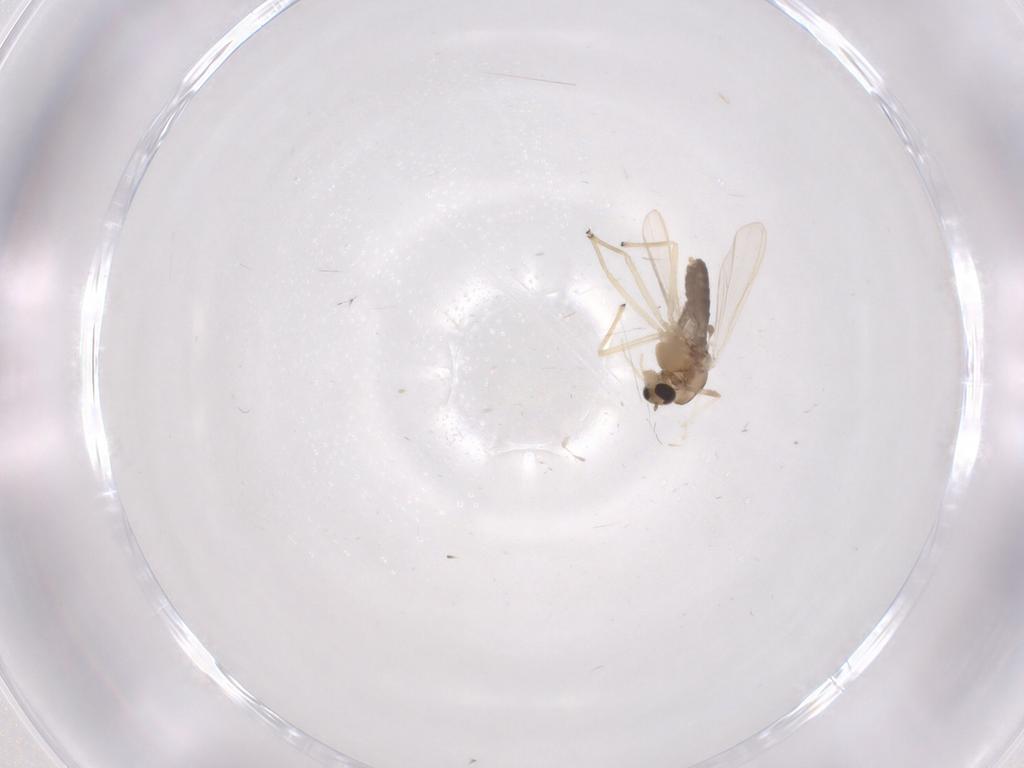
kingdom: Animalia
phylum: Arthropoda
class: Insecta
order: Diptera
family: Chironomidae
